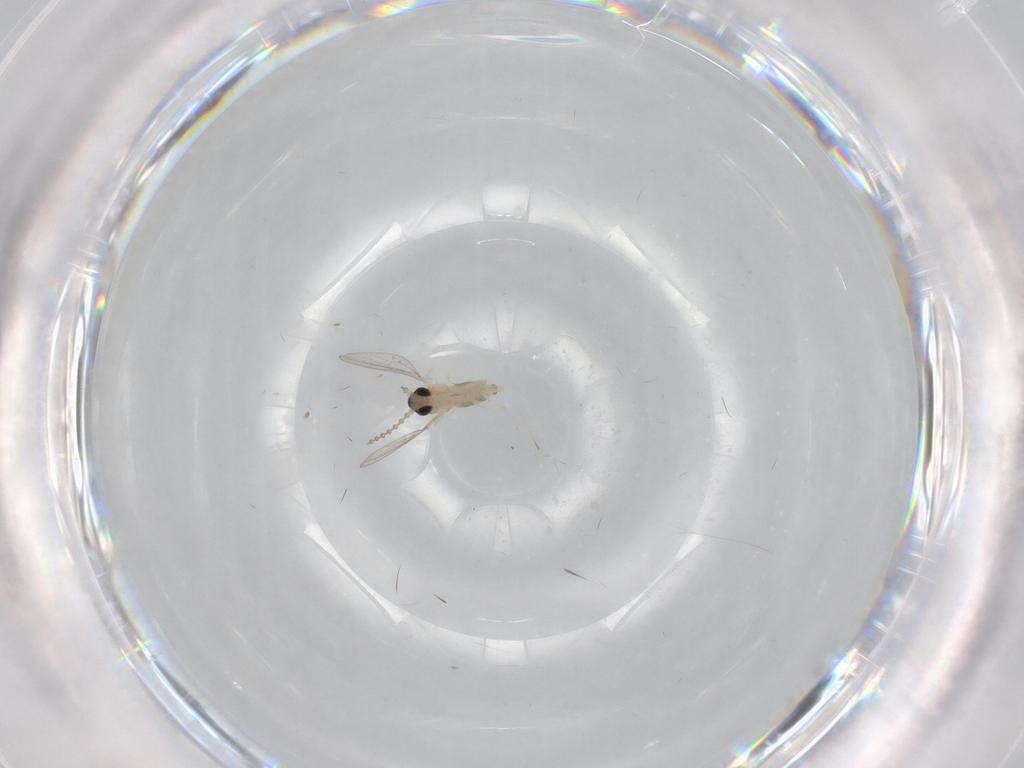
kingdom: Animalia
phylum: Arthropoda
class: Insecta
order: Diptera
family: Cecidomyiidae
